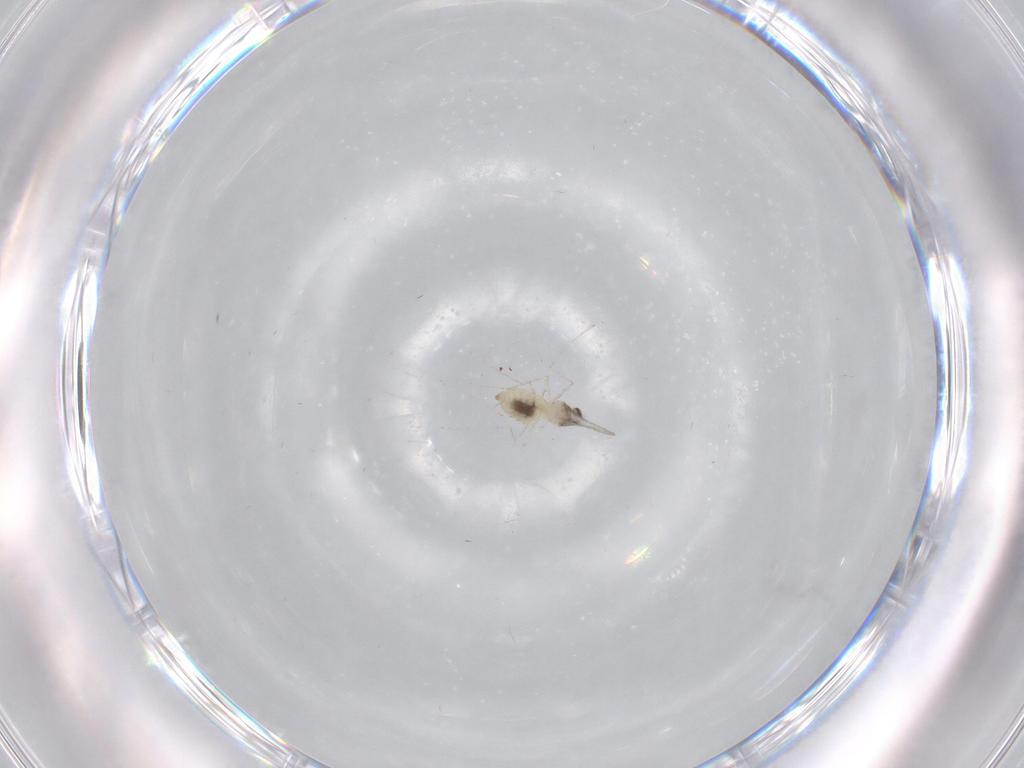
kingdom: Animalia
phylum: Arthropoda
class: Insecta
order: Diptera
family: Cecidomyiidae
